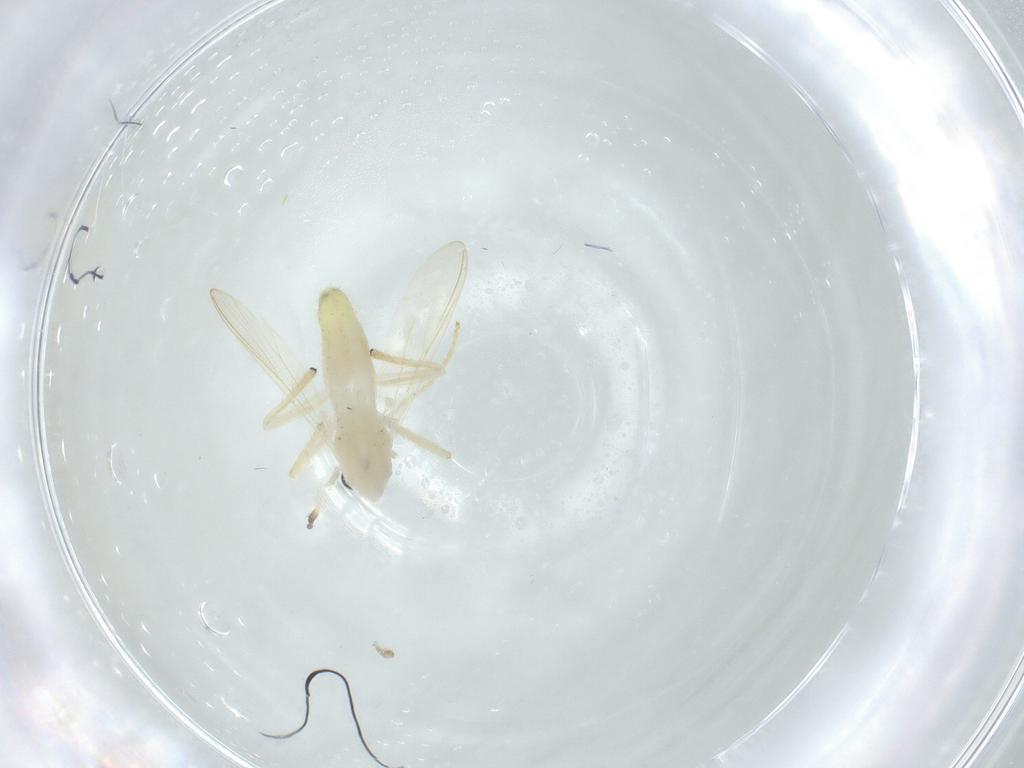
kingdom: Animalia
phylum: Arthropoda
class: Insecta
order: Diptera
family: Chironomidae
